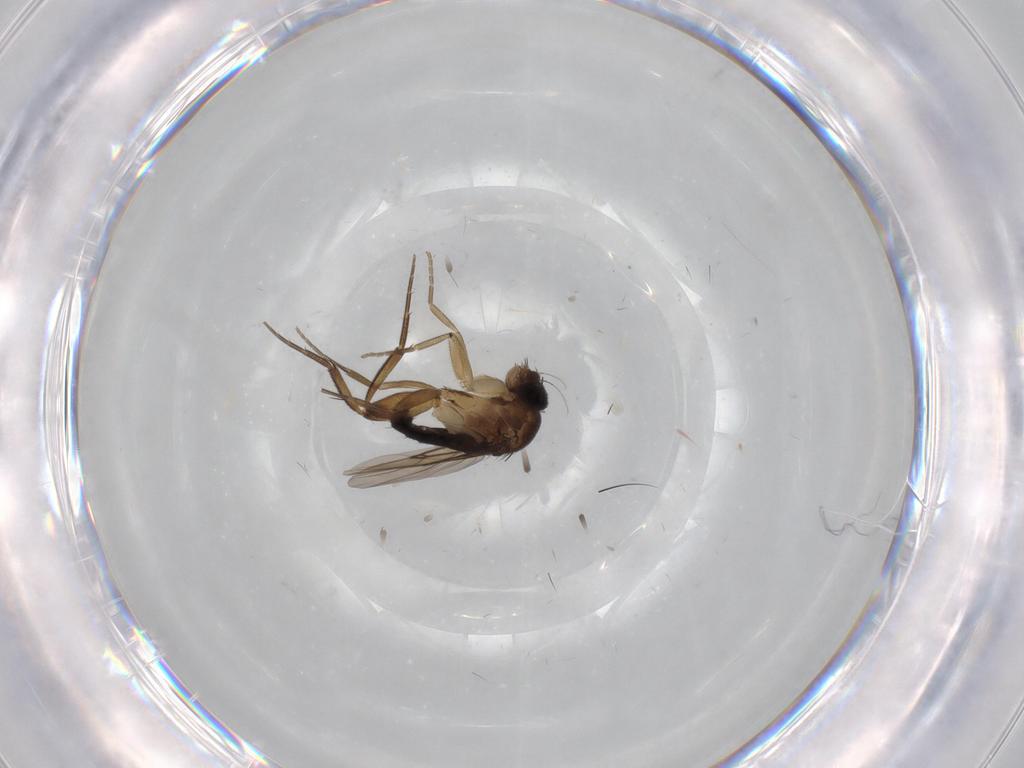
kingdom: Animalia
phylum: Arthropoda
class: Insecta
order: Diptera
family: Phoridae
